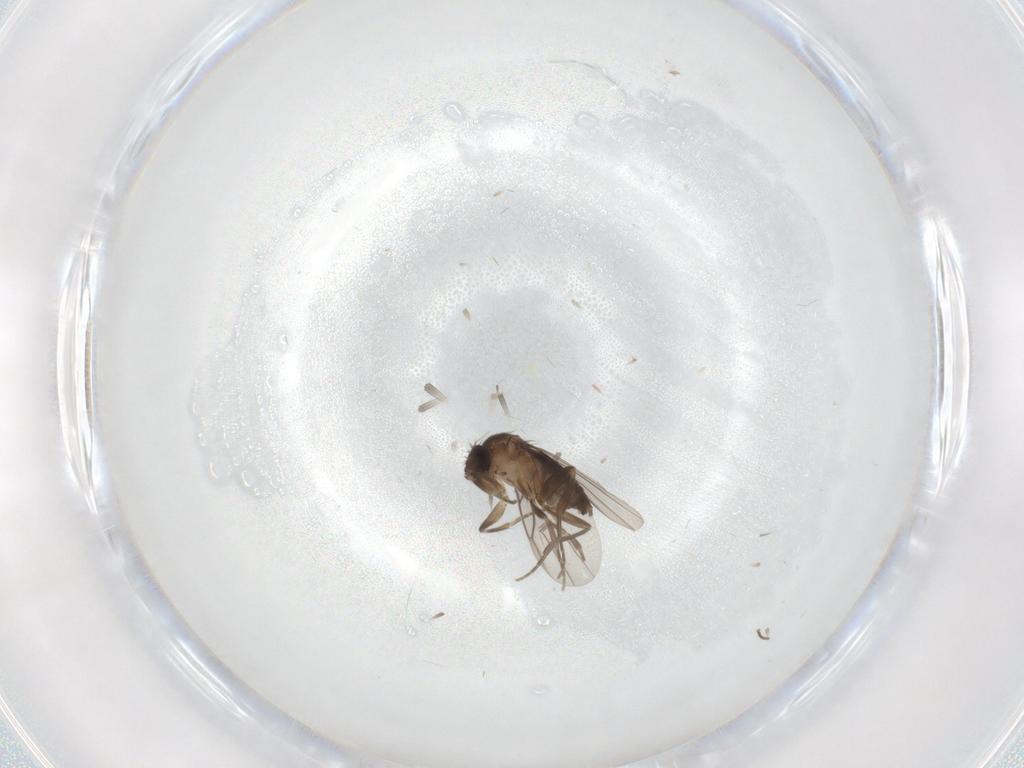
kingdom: Animalia
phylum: Arthropoda
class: Insecta
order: Diptera
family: Phoridae
